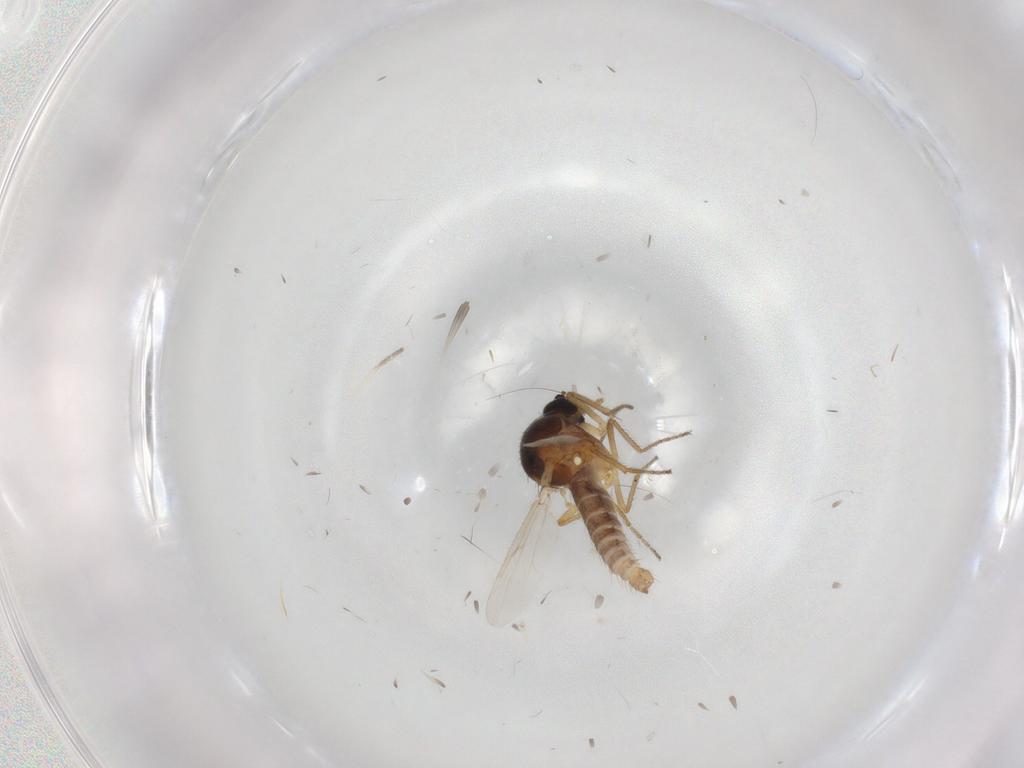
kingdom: Animalia
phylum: Arthropoda
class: Insecta
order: Diptera
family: Ceratopogonidae
